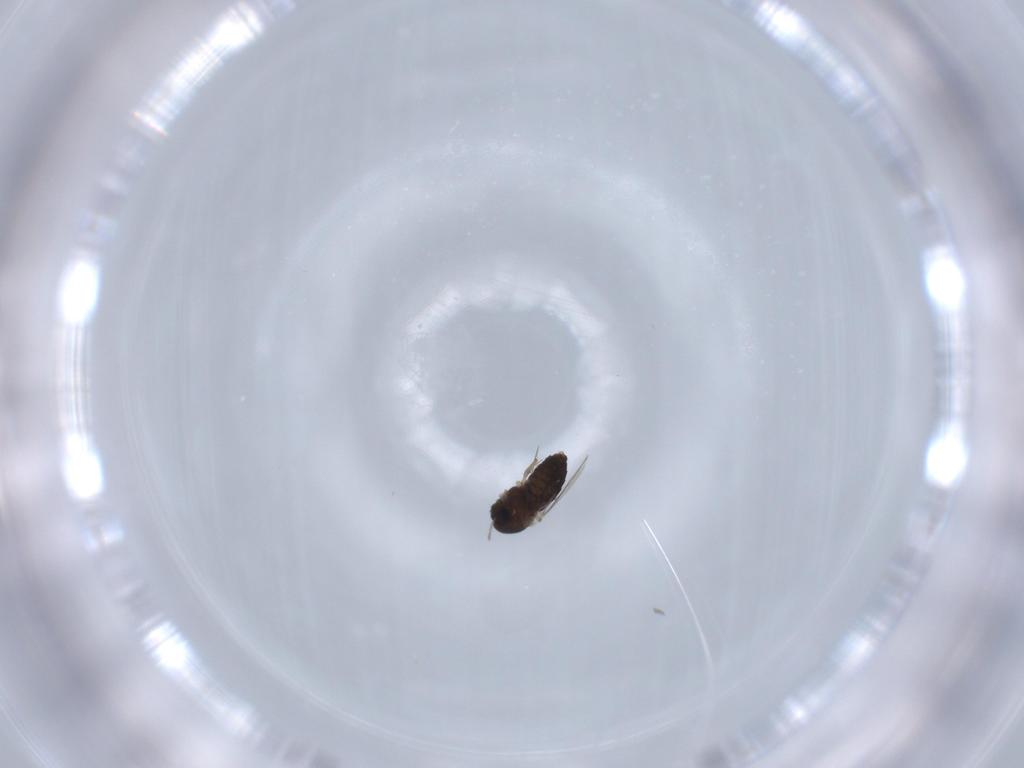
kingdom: Animalia
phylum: Arthropoda
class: Insecta
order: Diptera
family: Chironomidae
